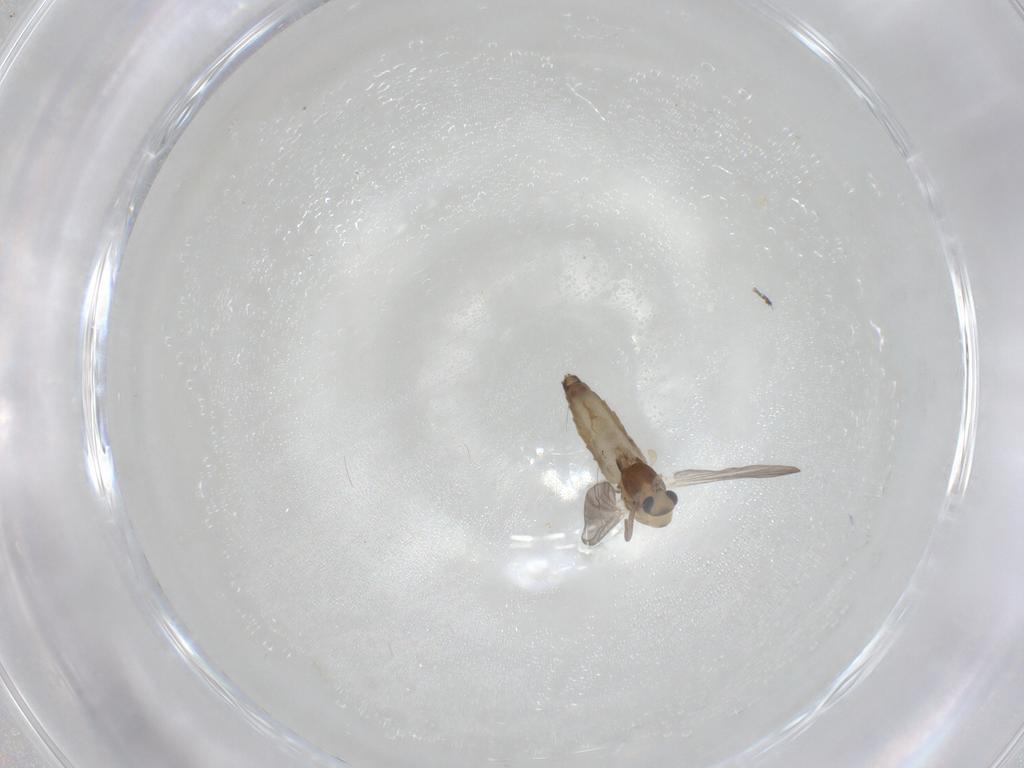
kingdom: Animalia
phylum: Arthropoda
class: Insecta
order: Diptera
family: Chironomidae
